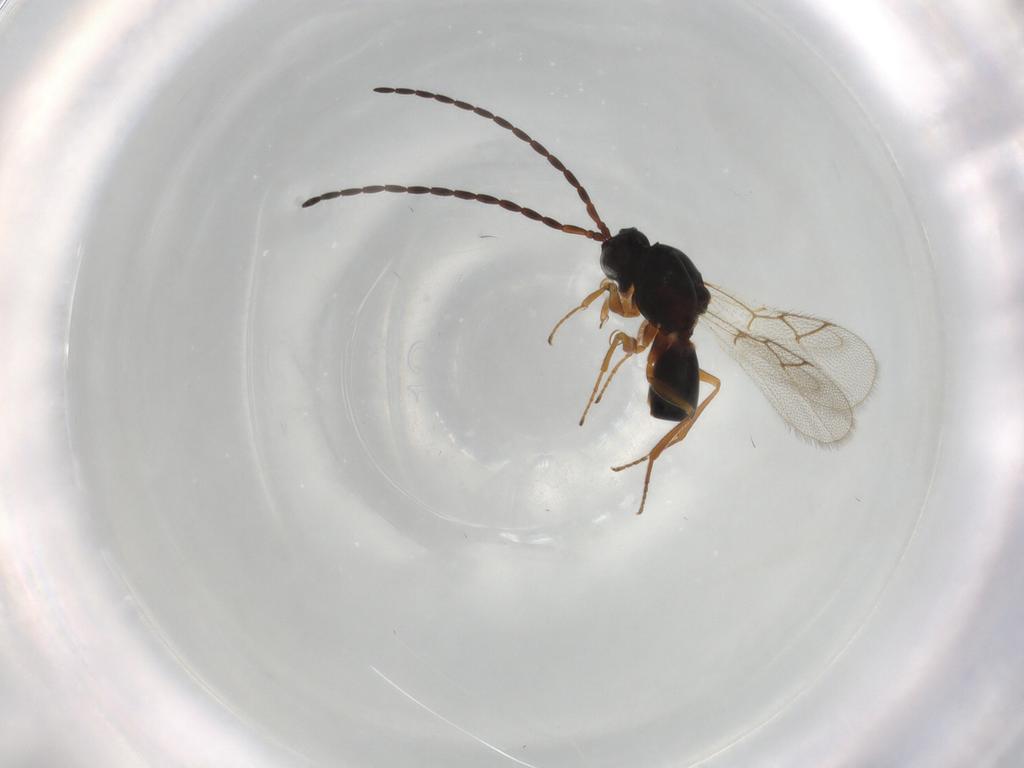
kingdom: Animalia
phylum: Arthropoda
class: Insecta
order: Hymenoptera
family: Figitidae
